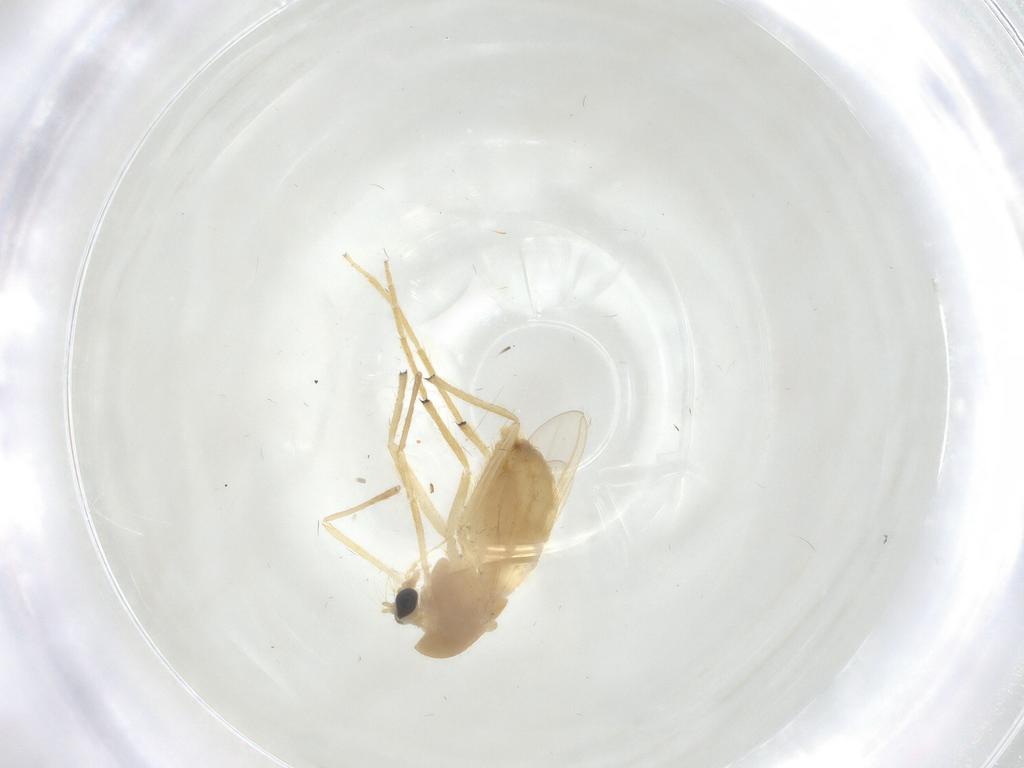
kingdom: Animalia
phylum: Arthropoda
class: Insecta
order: Diptera
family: Chironomidae
